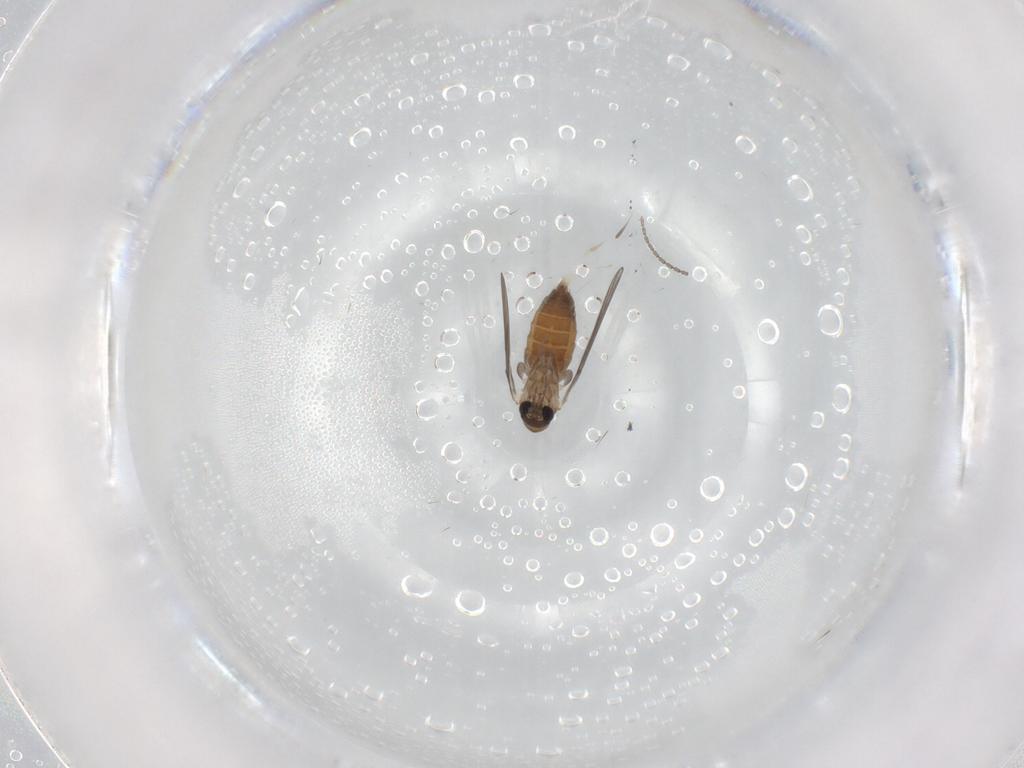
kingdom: Animalia
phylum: Arthropoda
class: Insecta
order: Diptera
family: Cecidomyiidae
